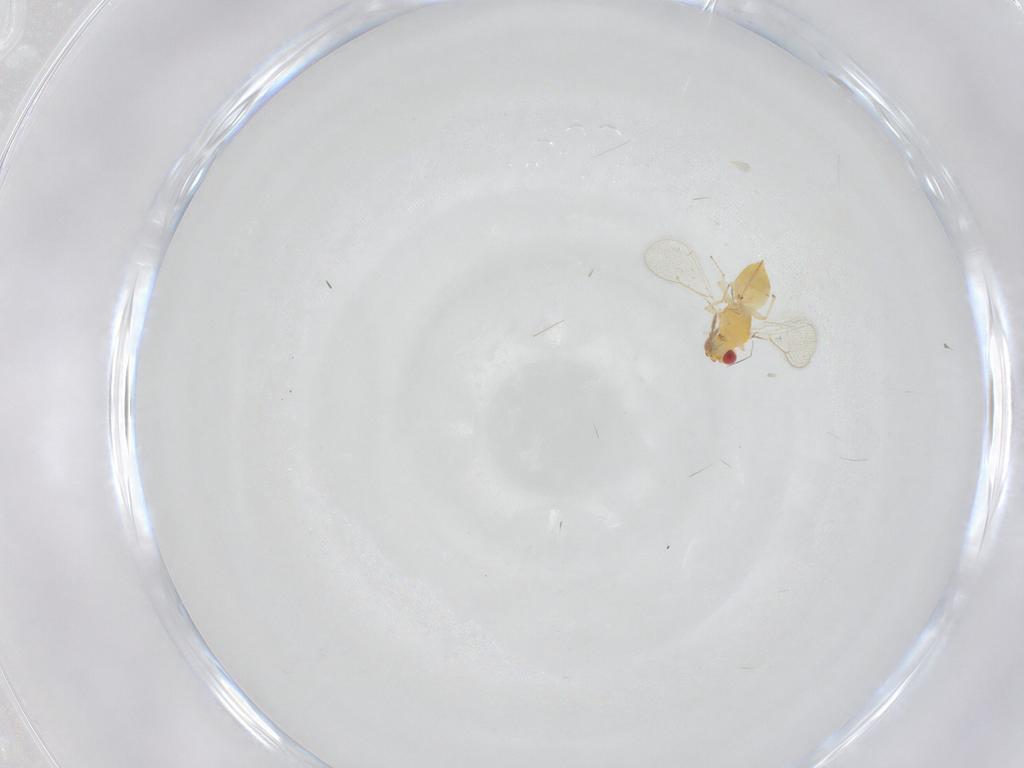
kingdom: Animalia
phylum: Arthropoda
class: Insecta
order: Hymenoptera
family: Eulophidae
